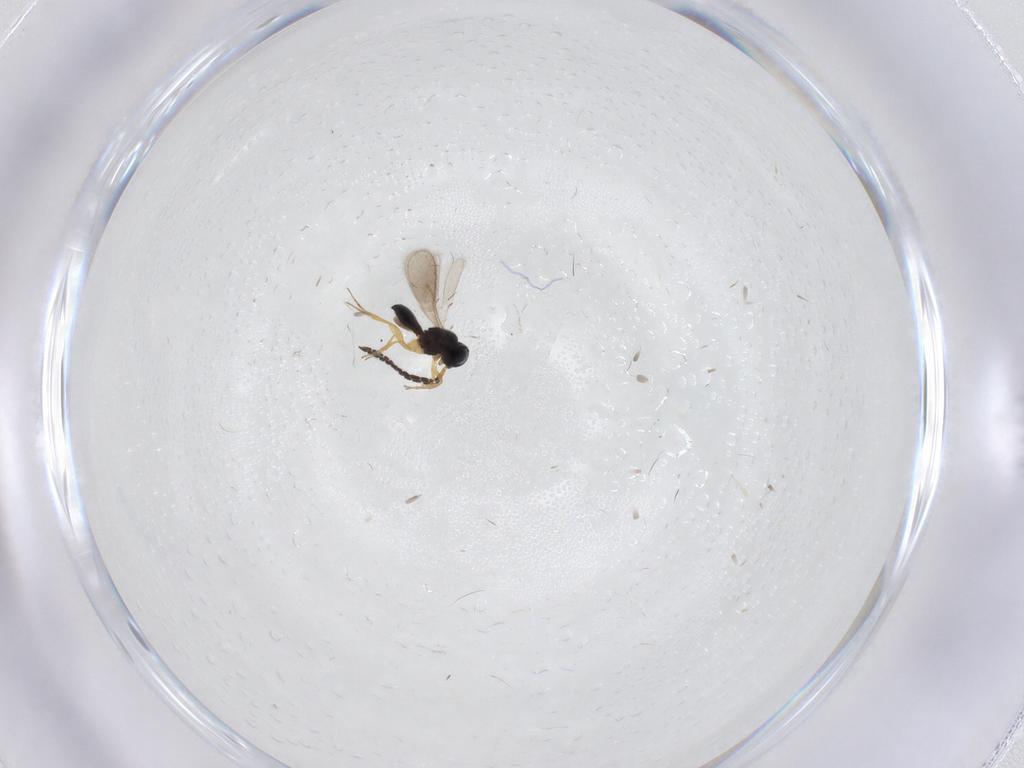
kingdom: Animalia
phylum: Arthropoda
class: Insecta
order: Hymenoptera
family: Scelionidae
